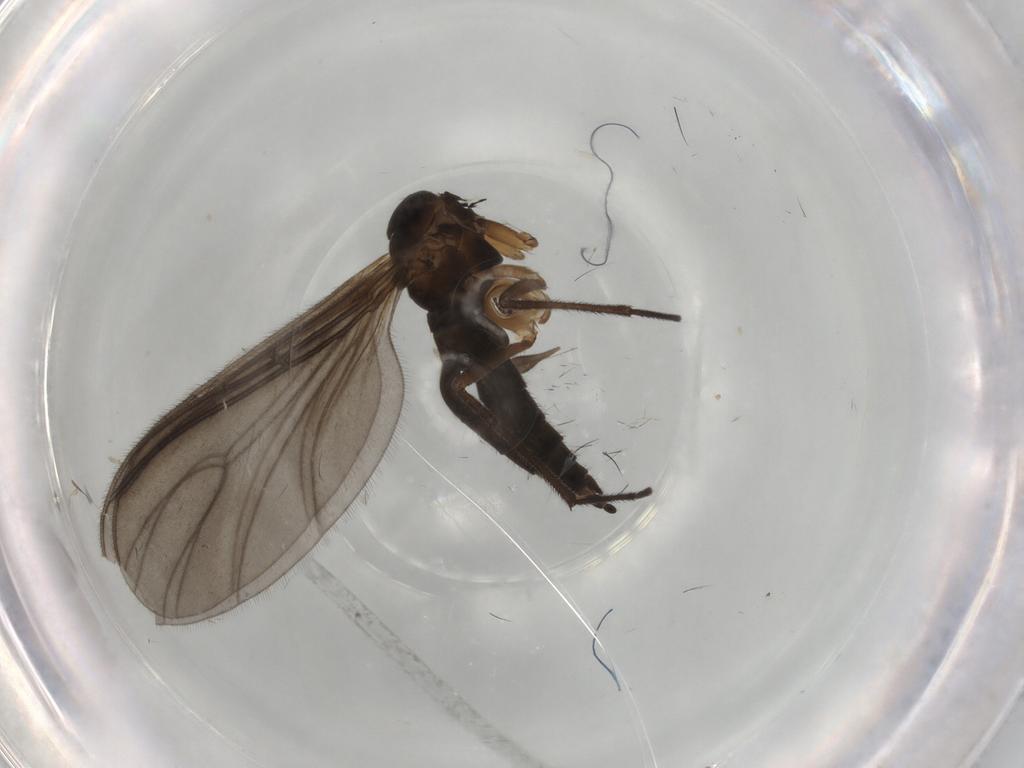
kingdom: Animalia
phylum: Arthropoda
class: Insecta
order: Diptera
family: Sciaridae
